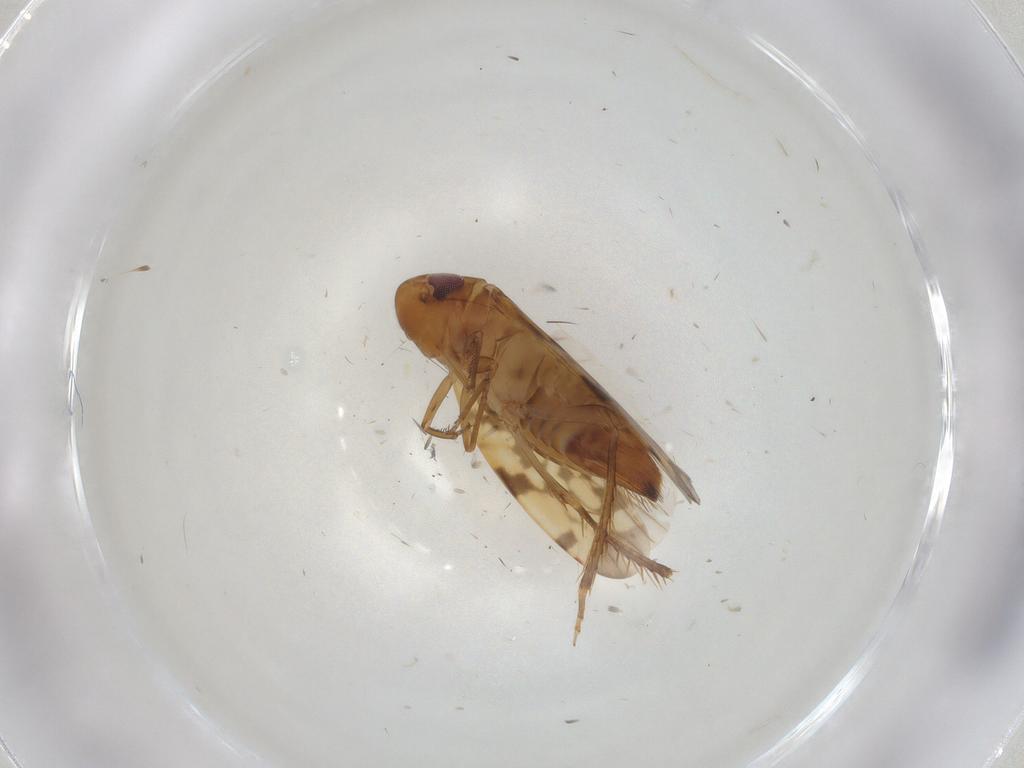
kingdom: Animalia
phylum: Arthropoda
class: Insecta
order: Hemiptera
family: Cicadellidae
